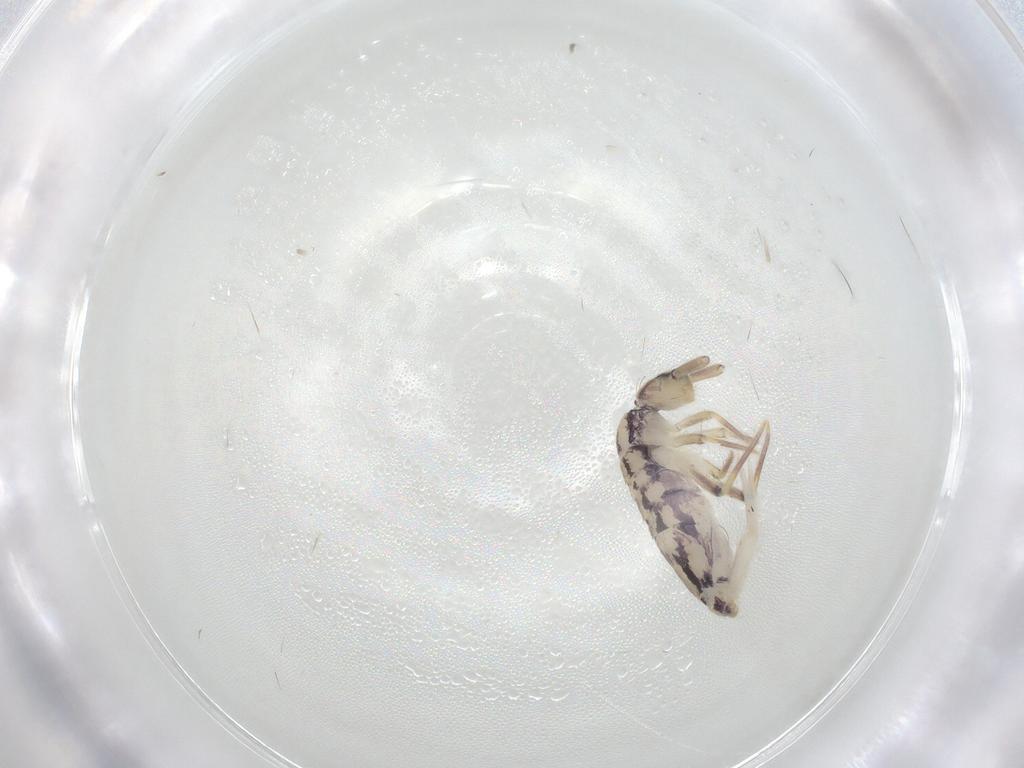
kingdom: Animalia
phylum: Arthropoda
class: Collembola
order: Entomobryomorpha
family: Entomobryidae
